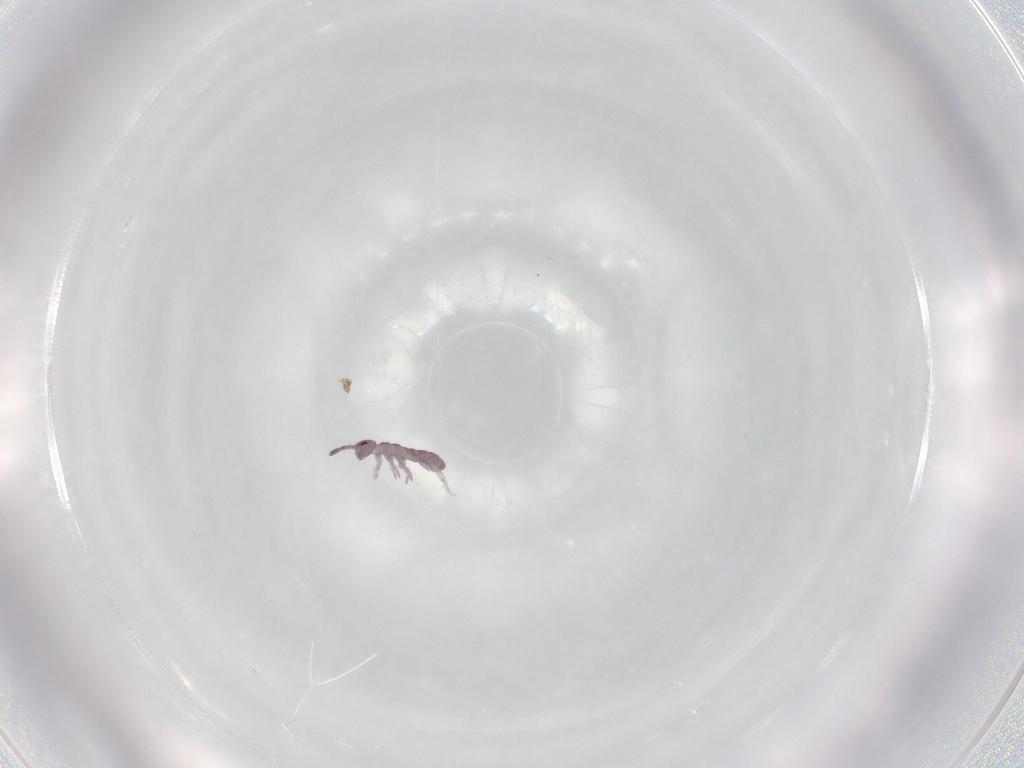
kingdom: Animalia
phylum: Arthropoda
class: Collembola
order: Entomobryomorpha
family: Isotomidae
